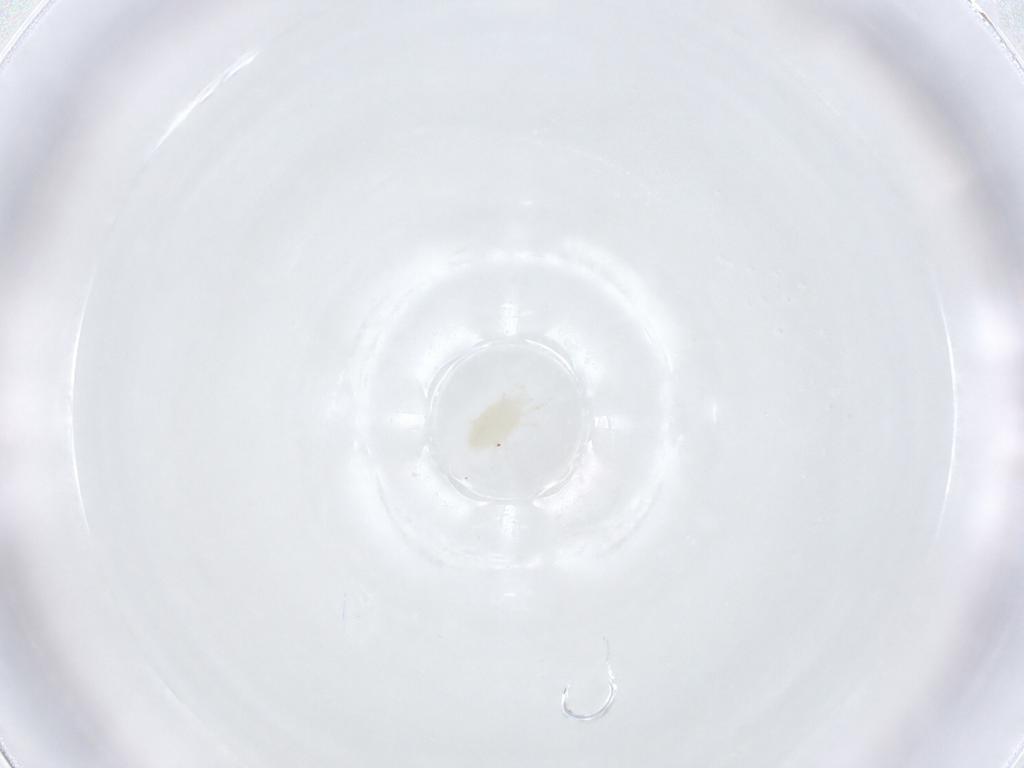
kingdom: Animalia
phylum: Arthropoda
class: Arachnida
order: Trombidiformes
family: Stigmaeidae
